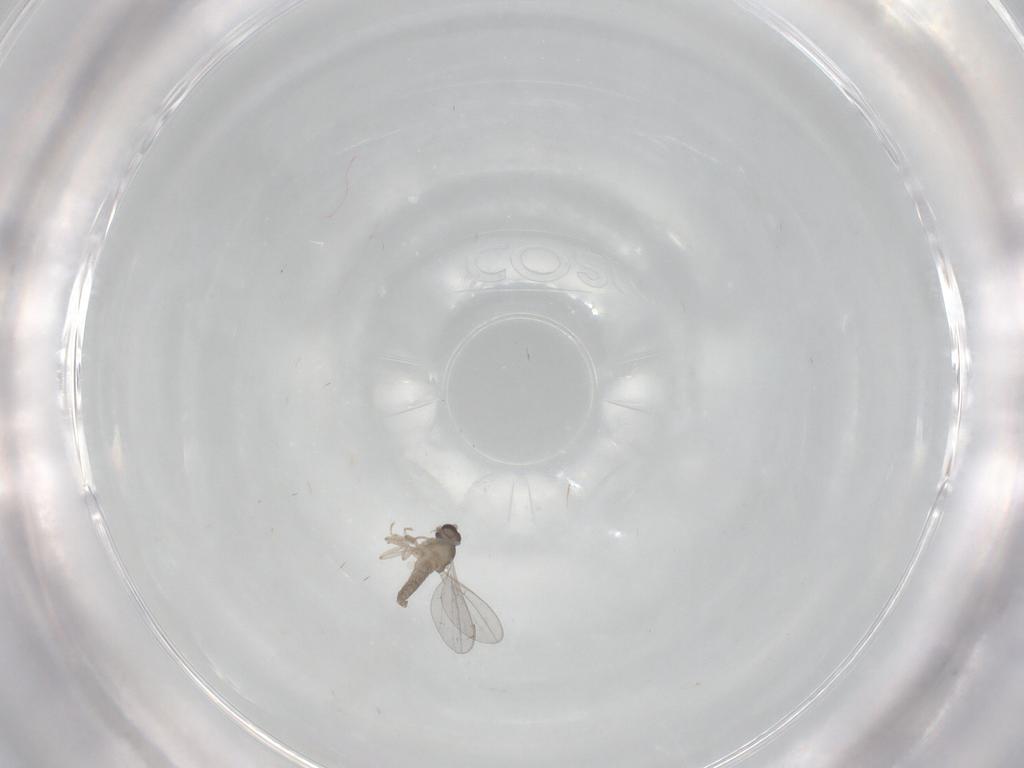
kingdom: Animalia
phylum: Arthropoda
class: Insecta
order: Diptera
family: Cecidomyiidae
